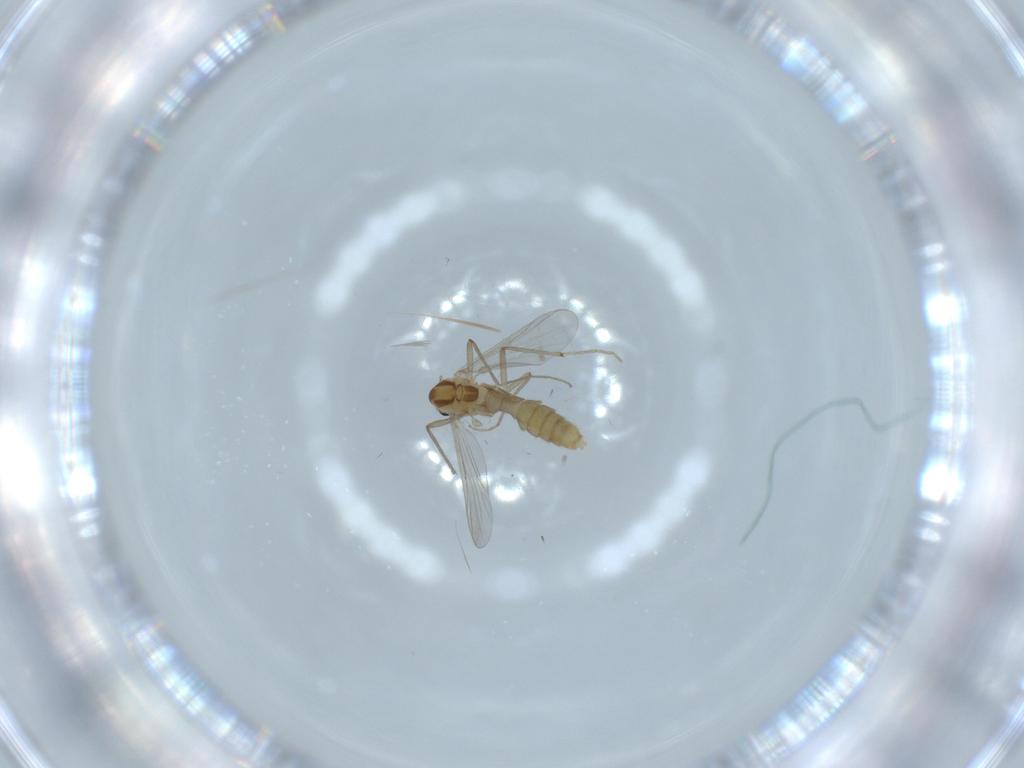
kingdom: Animalia
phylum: Arthropoda
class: Insecta
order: Diptera
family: Chironomidae
